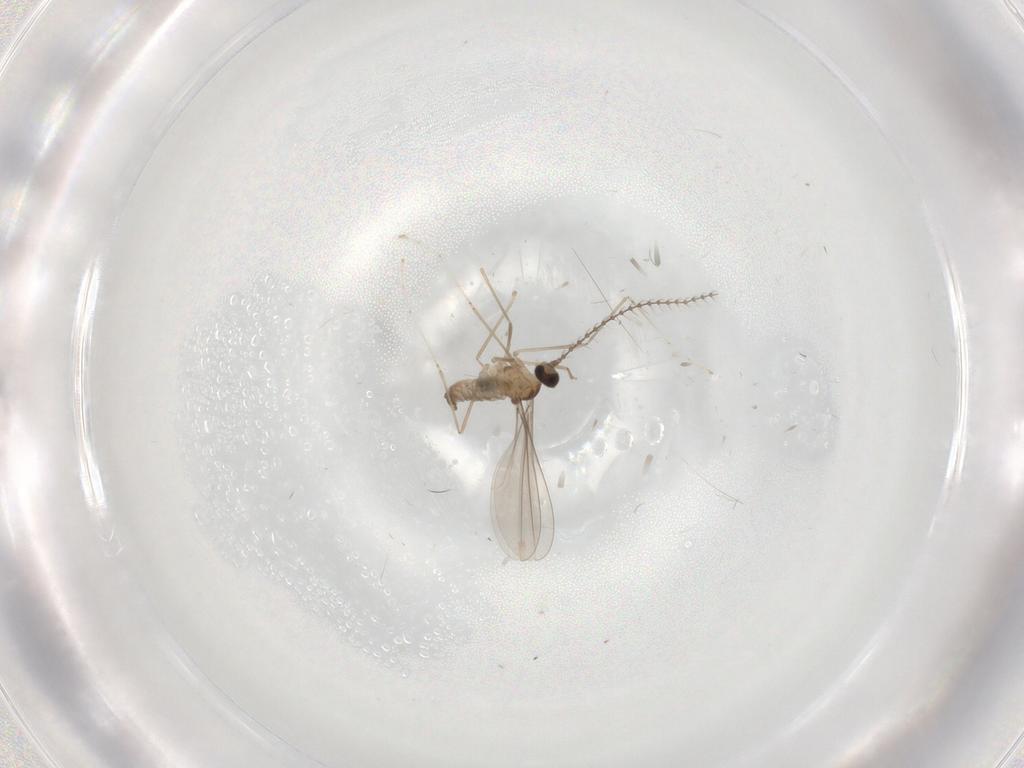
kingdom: Animalia
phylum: Arthropoda
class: Insecta
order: Diptera
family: Cecidomyiidae
